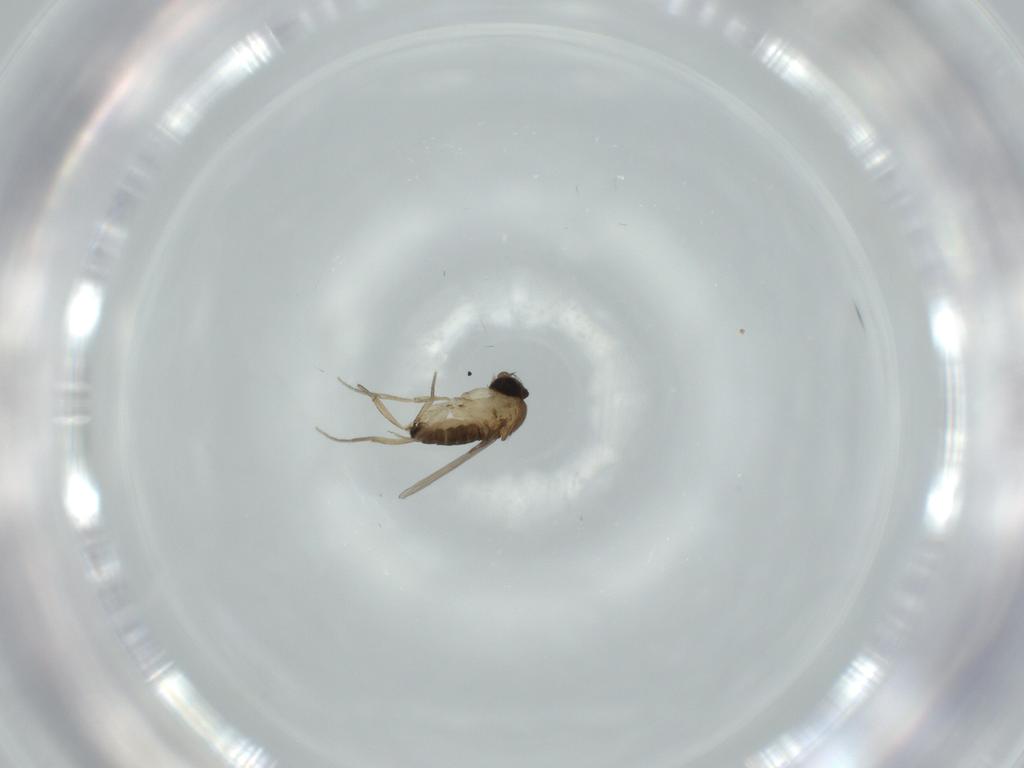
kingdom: Animalia
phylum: Arthropoda
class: Insecta
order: Diptera
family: Phoridae
